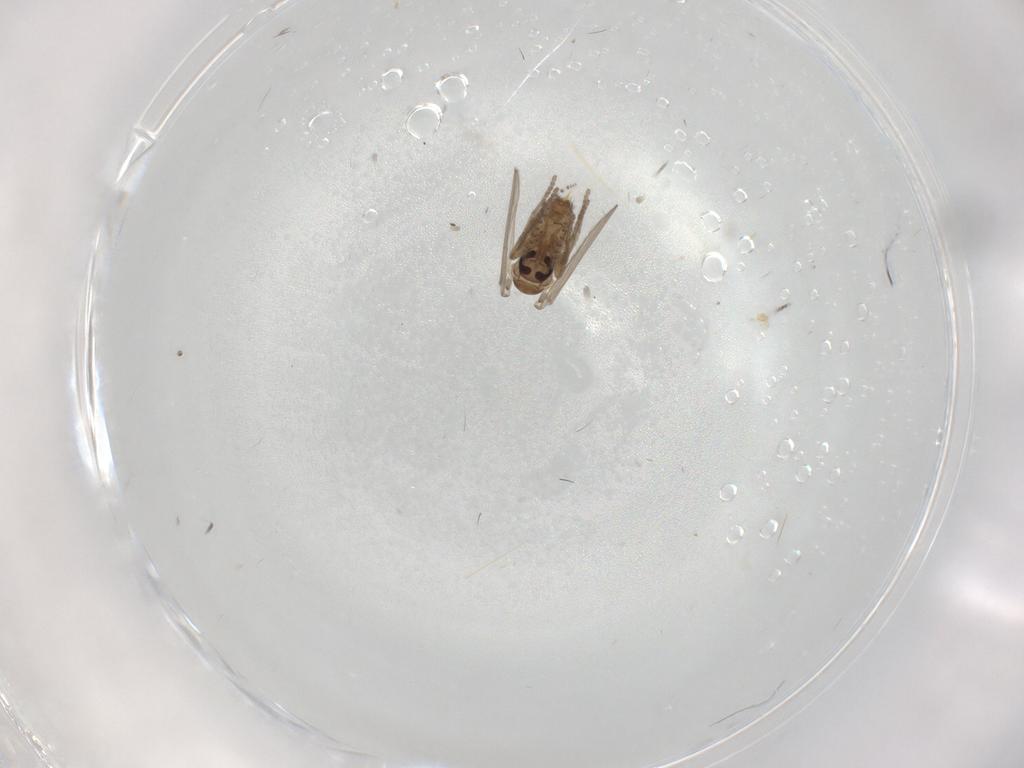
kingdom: Animalia
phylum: Arthropoda
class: Insecta
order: Diptera
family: Psychodidae
